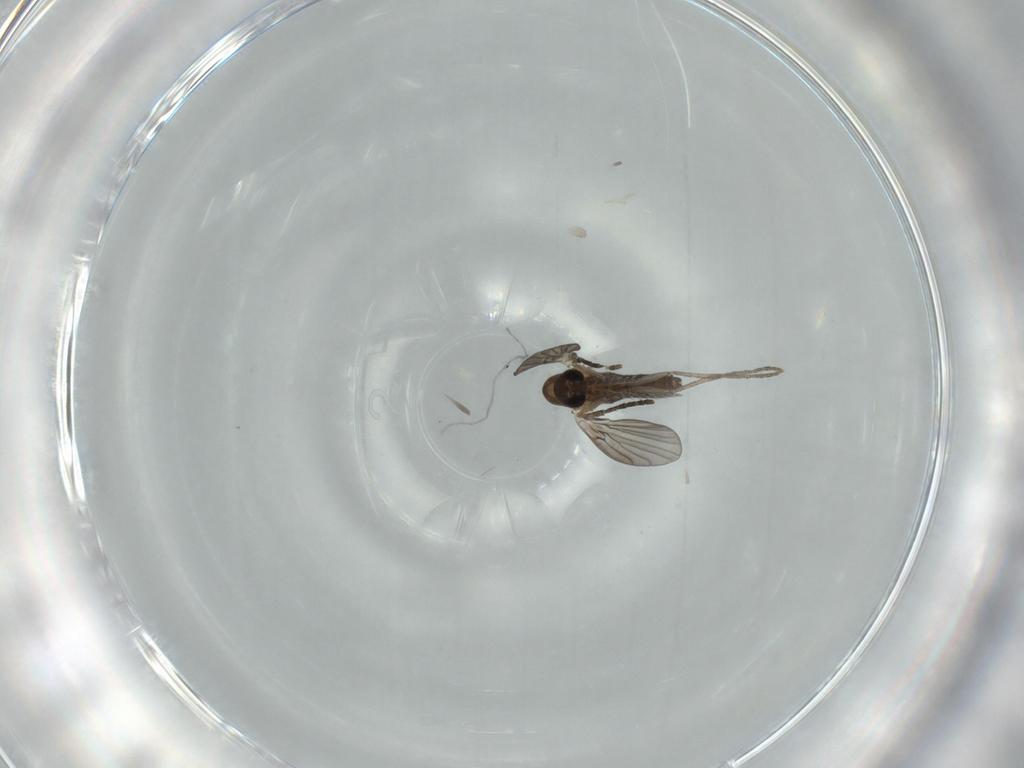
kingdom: Animalia
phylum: Arthropoda
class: Insecta
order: Diptera
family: Psychodidae
